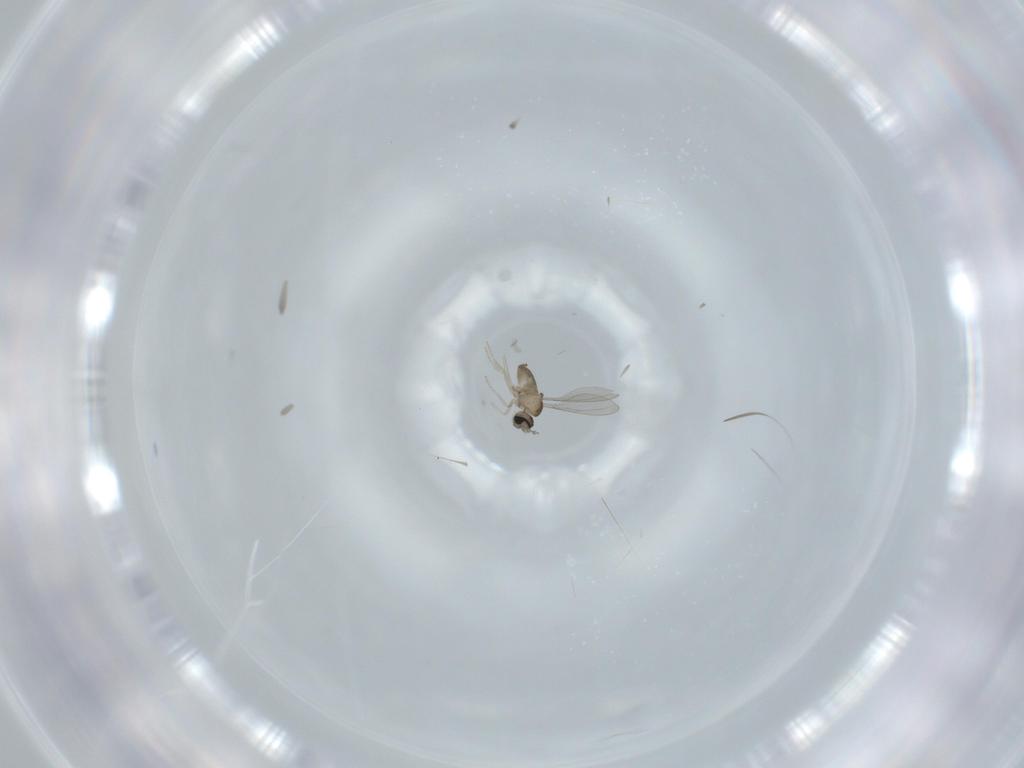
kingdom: Animalia
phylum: Arthropoda
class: Insecta
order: Diptera
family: Cecidomyiidae
